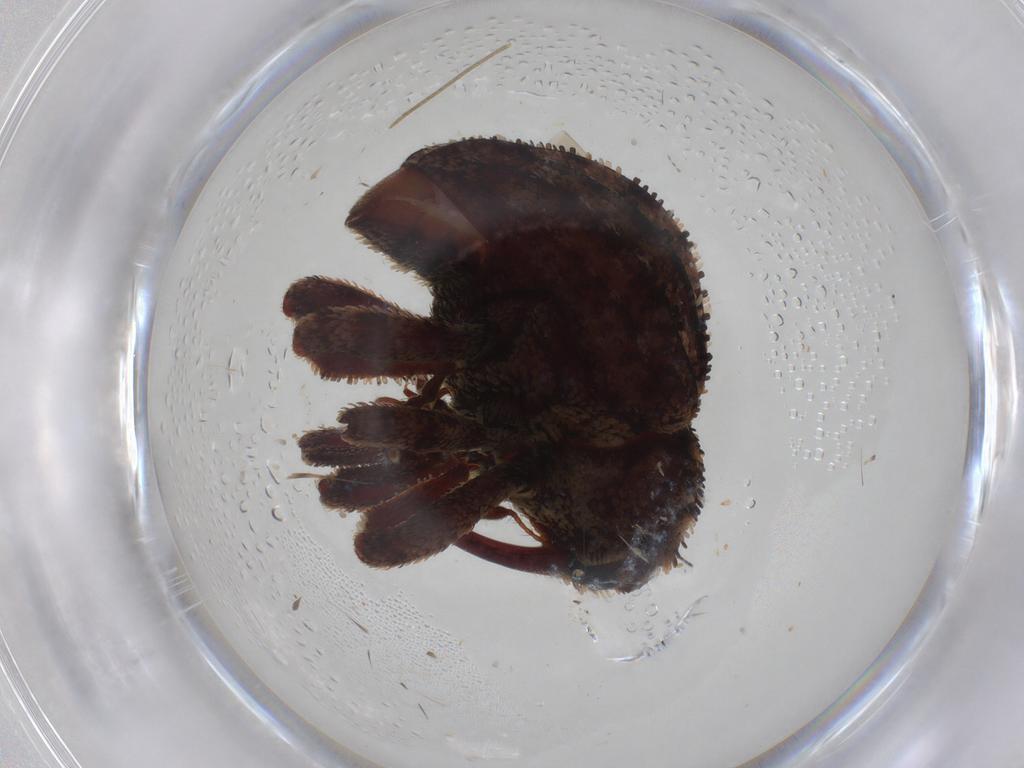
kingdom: Animalia
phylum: Arthropoda
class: Insecta
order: Coleoptera
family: Curculionidae
